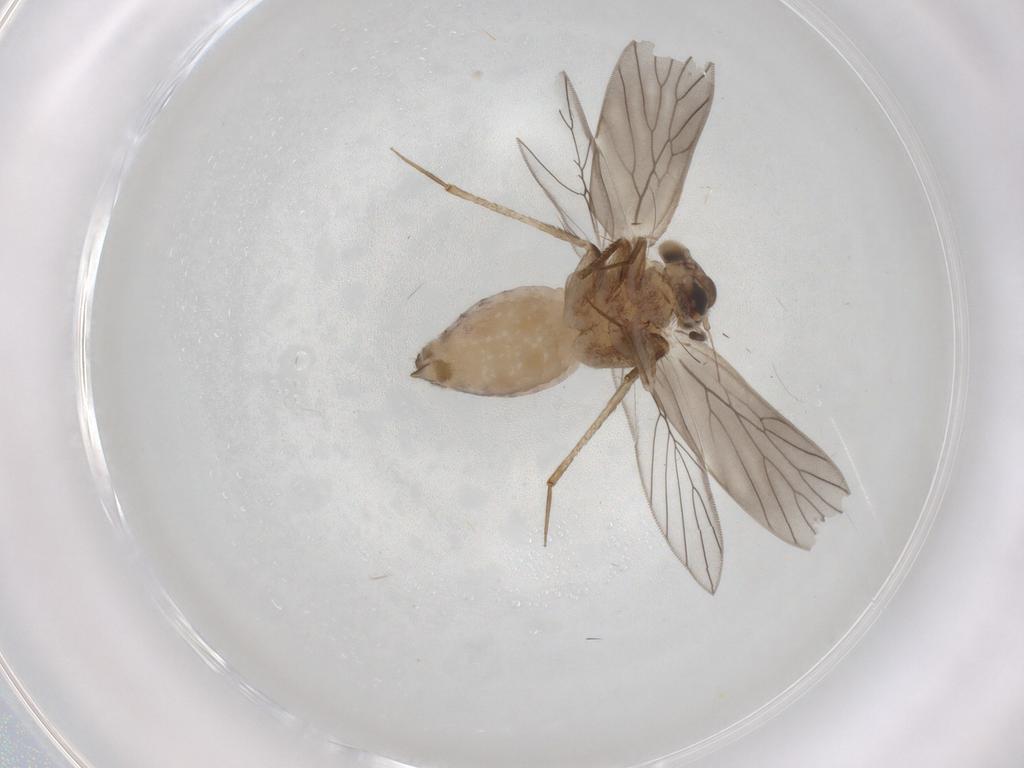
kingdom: Animalia
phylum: Arthropoda
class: Insecta
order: Psocodea
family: Lepidopsocidae
